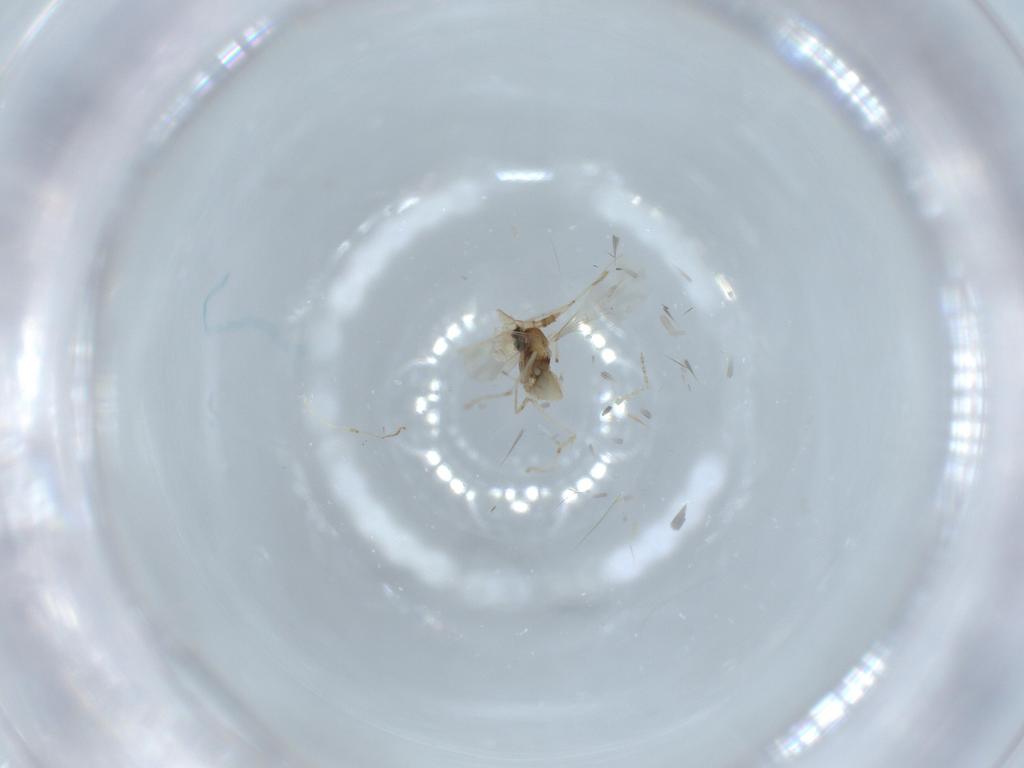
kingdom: Animalia
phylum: Arthropoda
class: Insecta
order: Diptera
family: Cecidomyiidae
